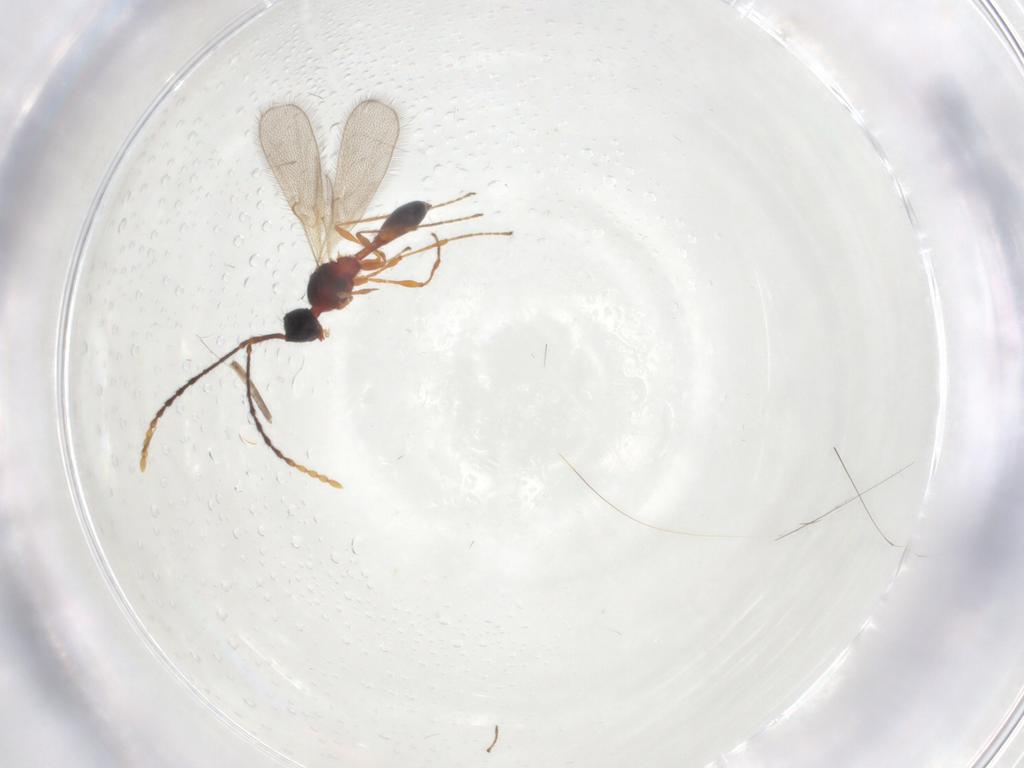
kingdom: Animalia
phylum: Arthropoda
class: Insecta
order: Hymenoptera
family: Diapriidae
